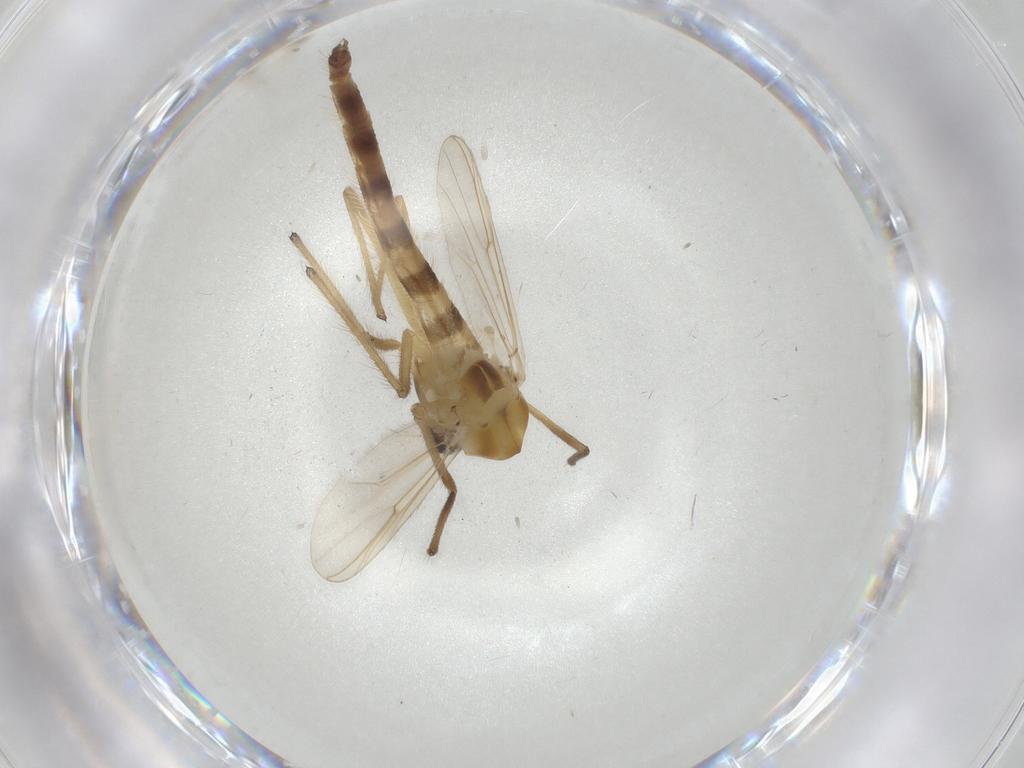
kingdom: Animalia
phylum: Arthropoda
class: Insecta
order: Diptera
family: Chironomidae
